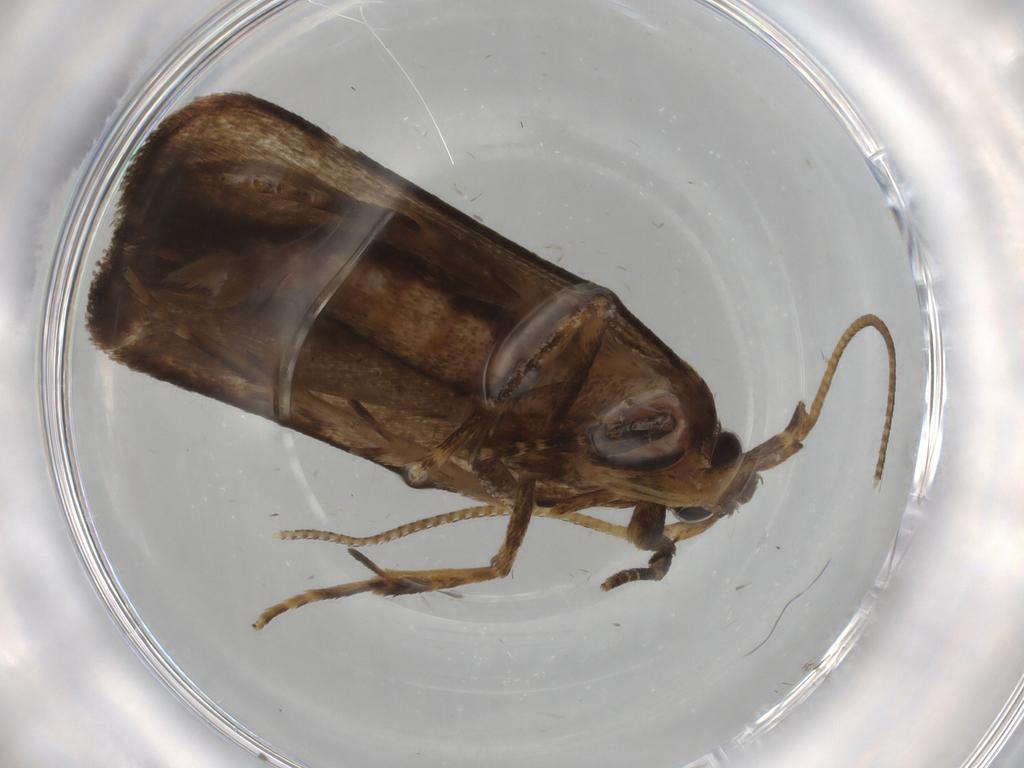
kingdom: Animalia
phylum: Arthropoda
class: Insecta
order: Lepidoptera
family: Autostichidae
